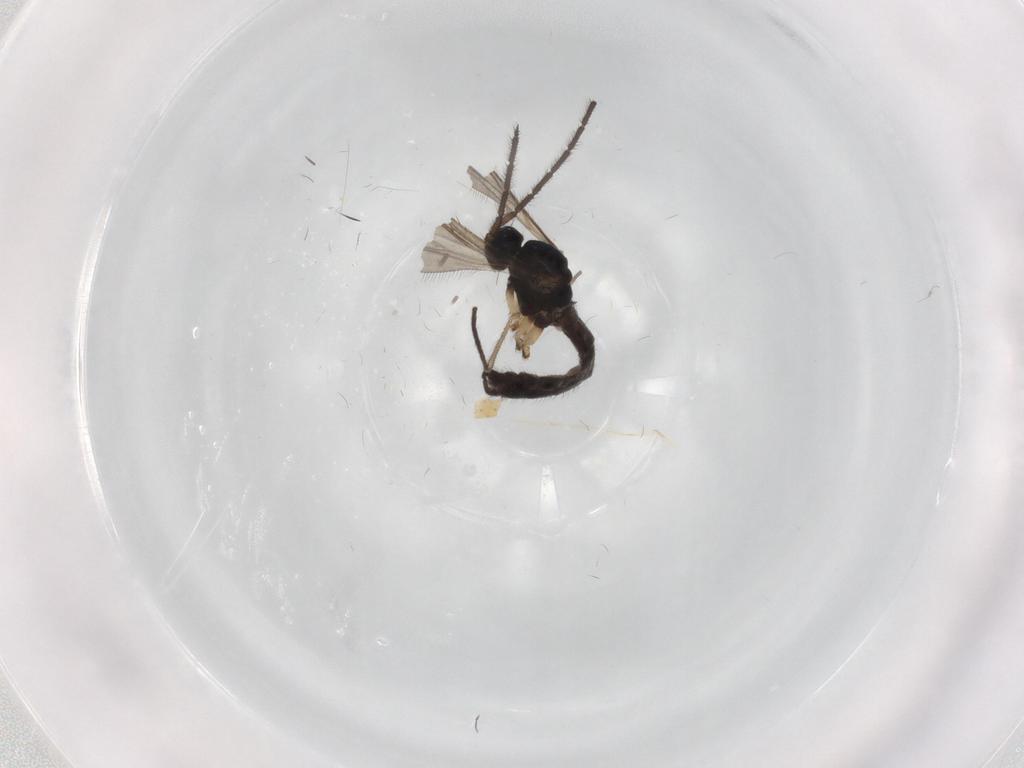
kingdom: Animalia
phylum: Arthropoda
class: Insecta
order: Diptera
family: Sciaridae
